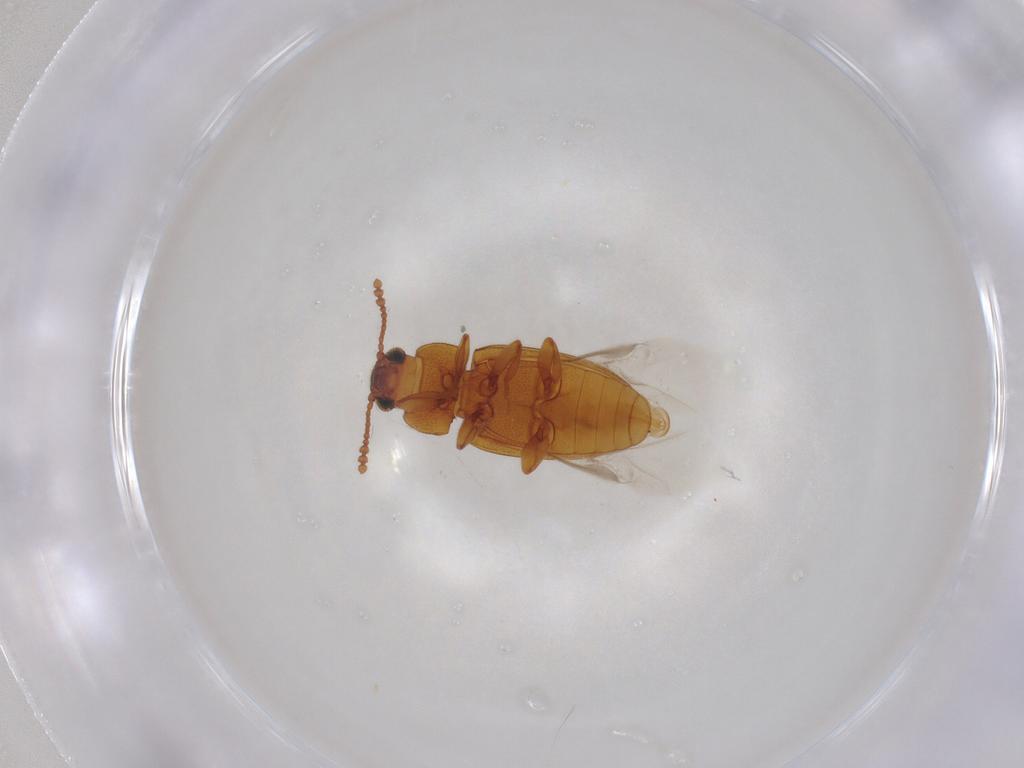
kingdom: Animalia
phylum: Arthropoda
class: Insecta
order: Coleoptera
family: Erotylidae
